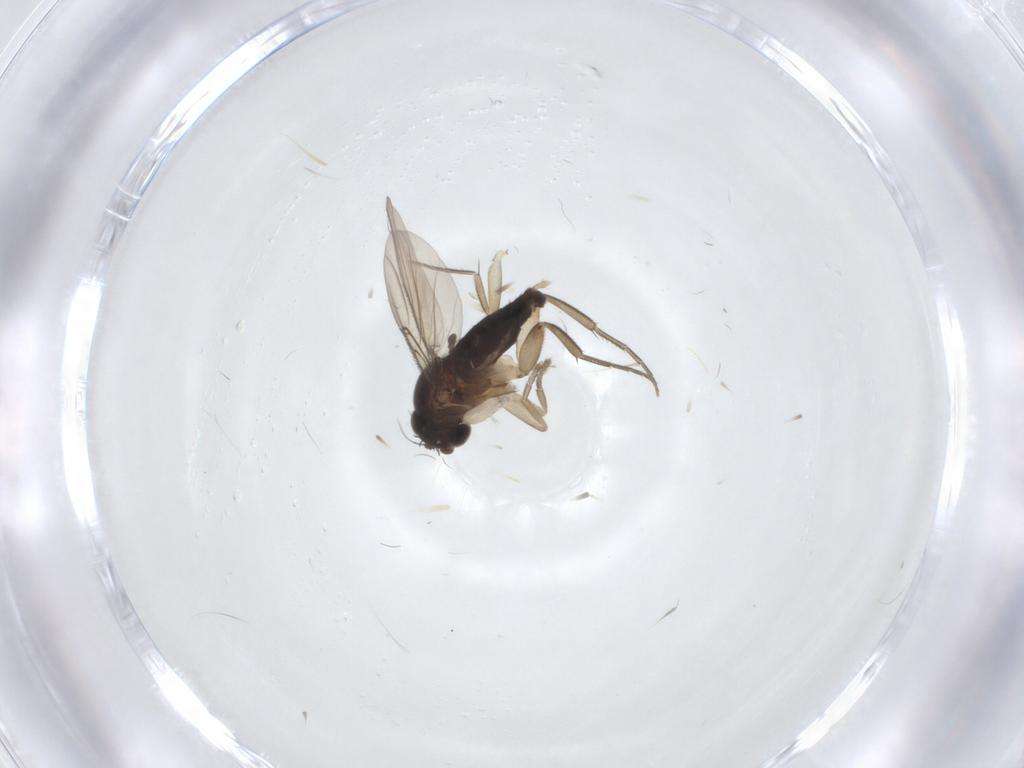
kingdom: Animalia
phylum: Arthropoda
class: Insecta
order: Diptera
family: Phoridae
